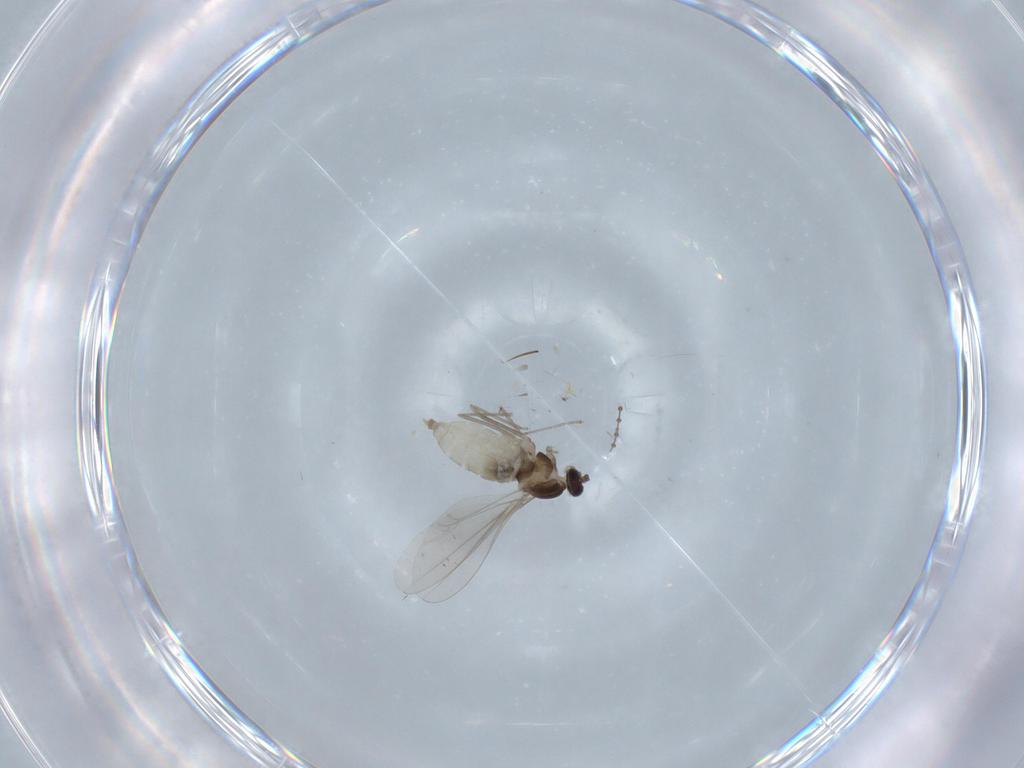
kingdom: Animalia
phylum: Arthropoda
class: Insecta
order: Diptera
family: Cecidomyiidae
